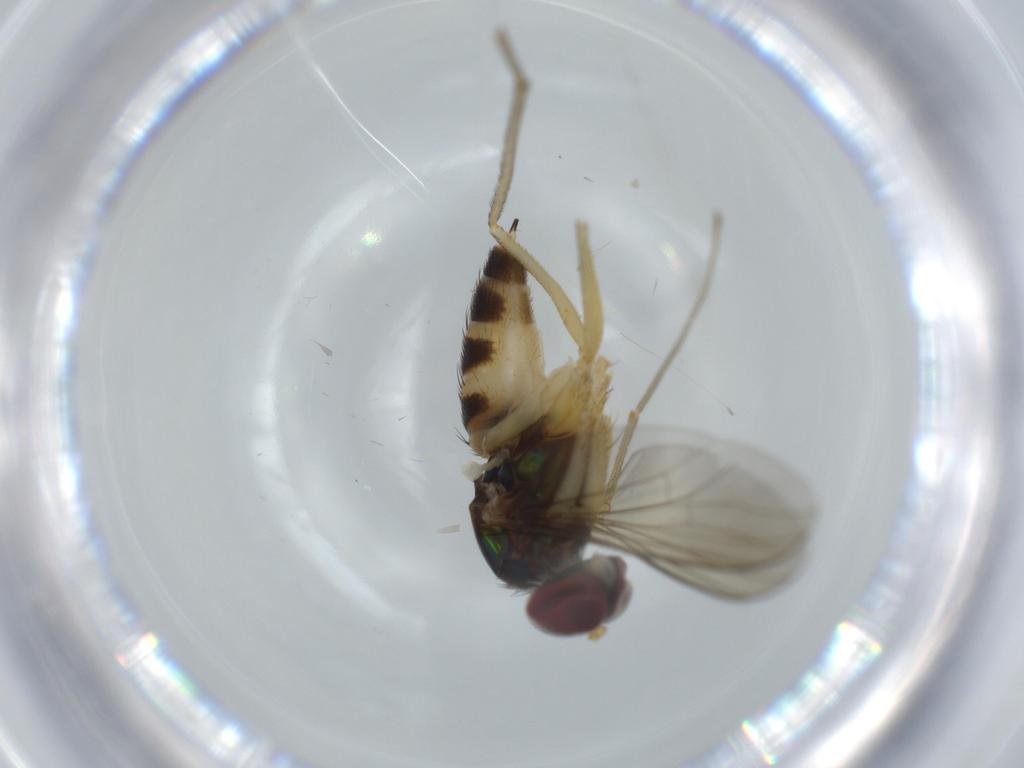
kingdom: Animalia
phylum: Arthropoda
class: Insecta
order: Diptera
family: Dolichopodidae
